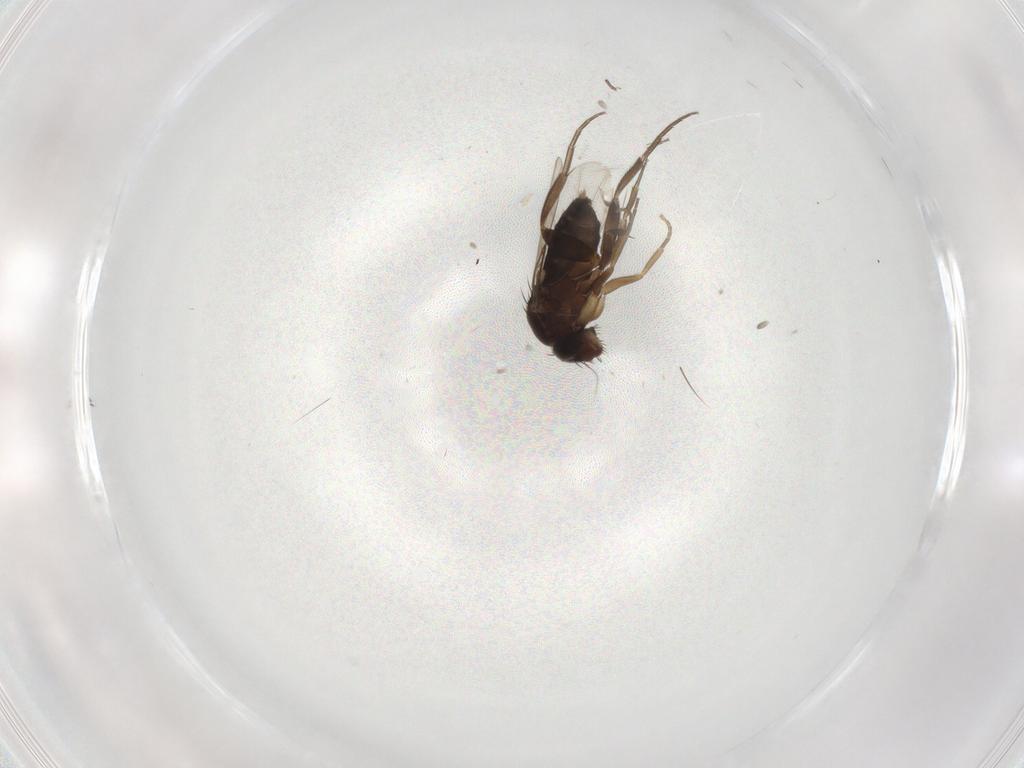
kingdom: Animalia
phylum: Arthropoda
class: Insecta
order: Diptera
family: Phoridae
